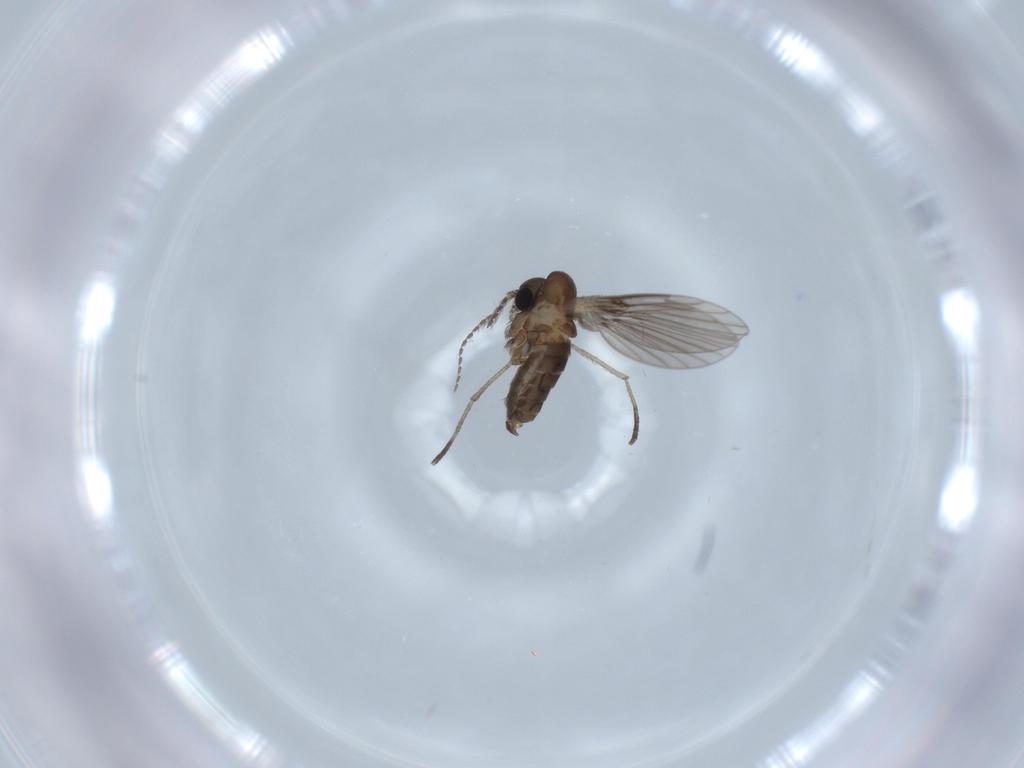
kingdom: Animalia
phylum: Arthropoda
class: Insecta
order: Diptera
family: Psychodidae
